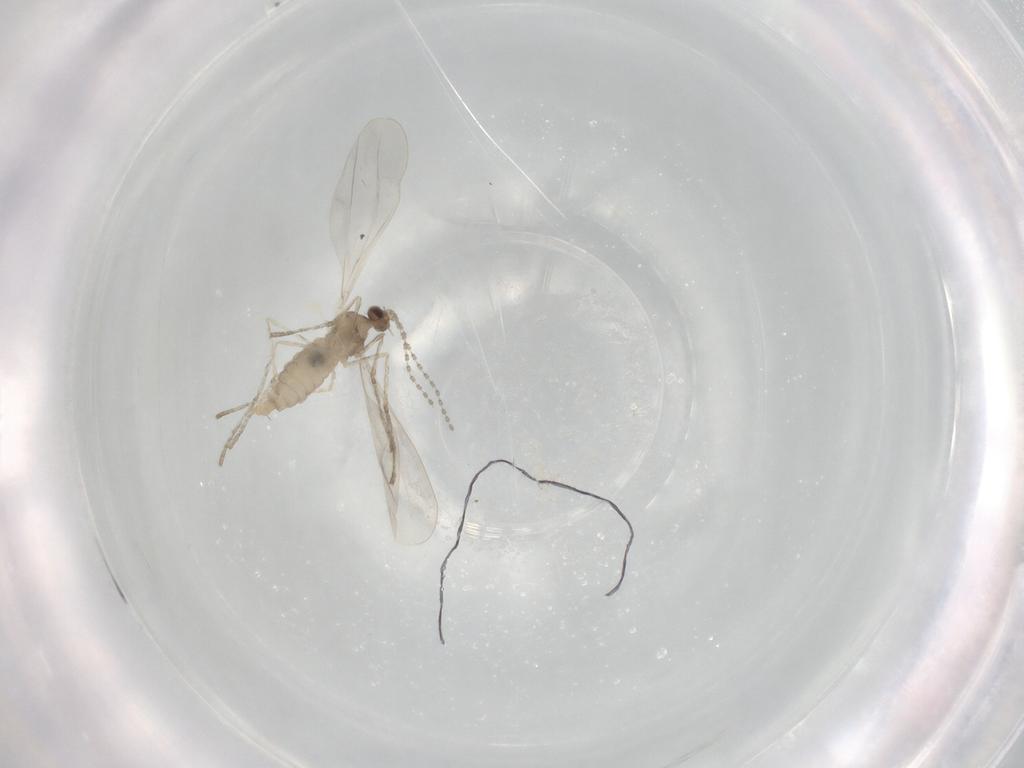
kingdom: Animalia
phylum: Arthropoda
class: Insecta
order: Diptera
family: Cecidomyiidae
